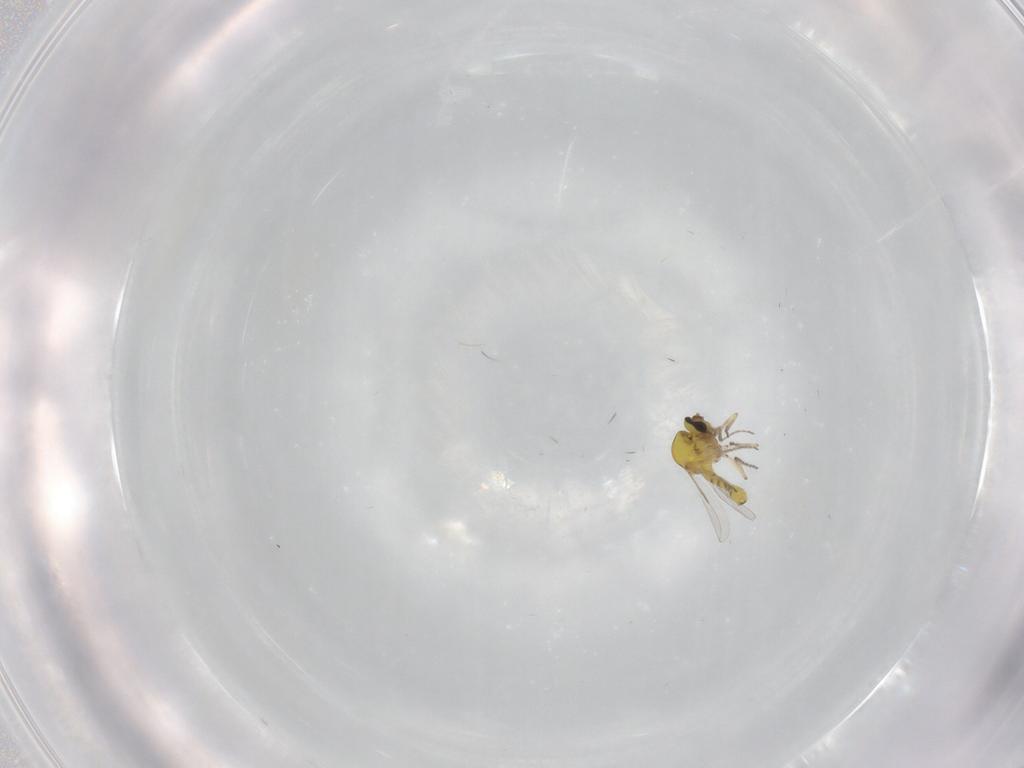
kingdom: Animalia
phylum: Arthropoda
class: Insecta
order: Diptera
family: Ceratopogonidae
